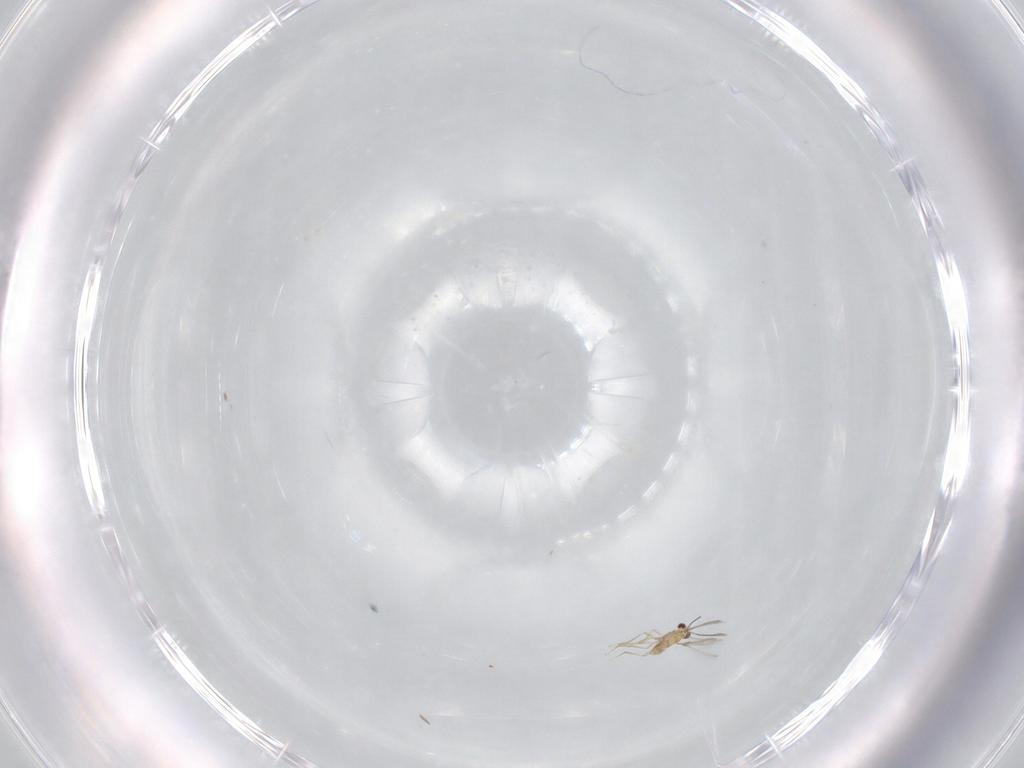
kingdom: Animalia
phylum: Arthropoda
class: Insecta
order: Hymenoptera
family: Mymaridae
